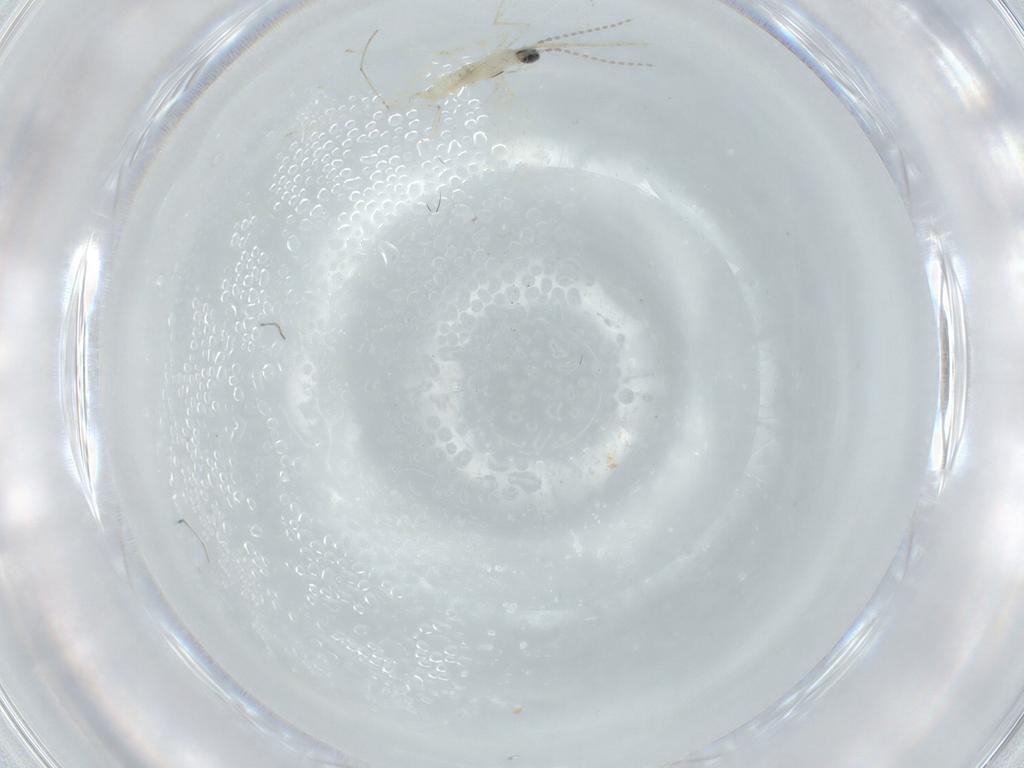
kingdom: Animalia
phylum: Arthropoda
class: Insecta
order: Diptera
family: Cecidomyiidae
